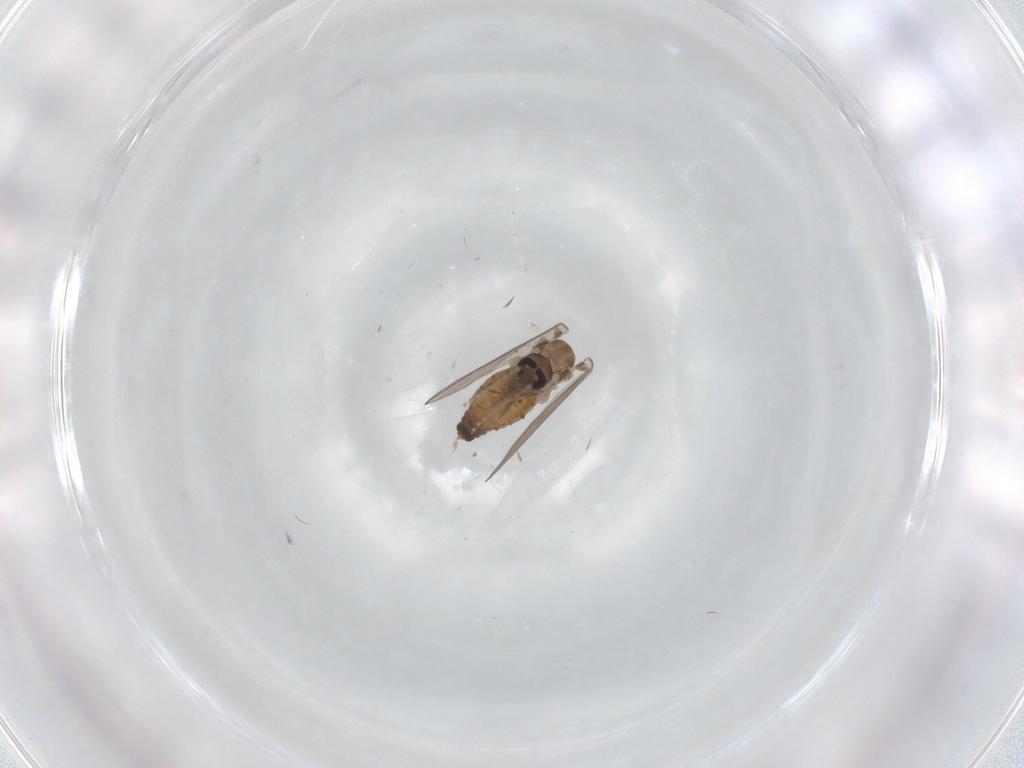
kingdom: Animalia
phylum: Arthropoda
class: Insecta
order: Diptera
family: Psychodidae
